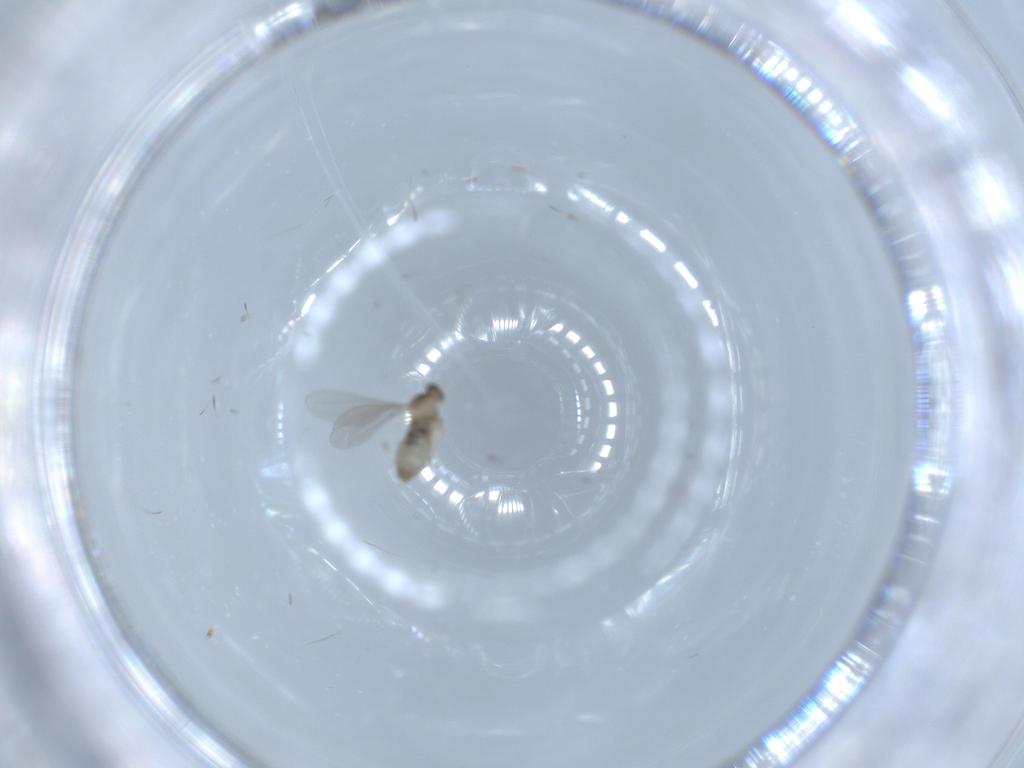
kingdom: Animalia
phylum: Arthropoda
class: Insecta
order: Diptera
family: Cecidomyiidae
